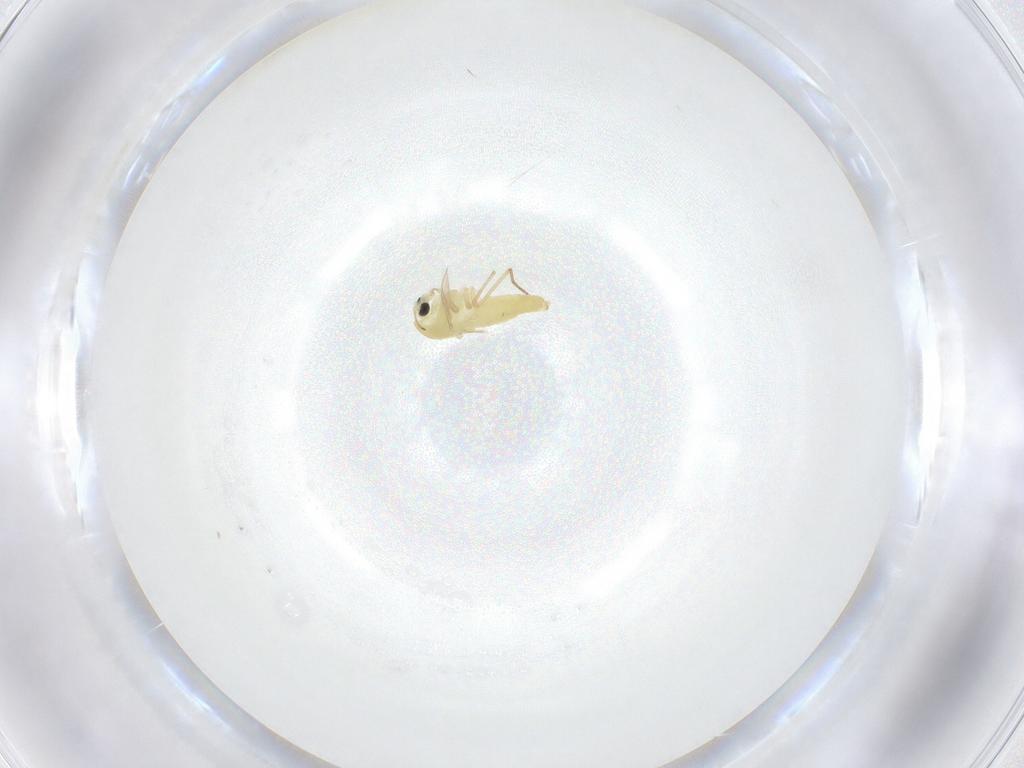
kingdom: Animalia
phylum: Arthropoda
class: Insecta
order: Diptera
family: Chironomidae
